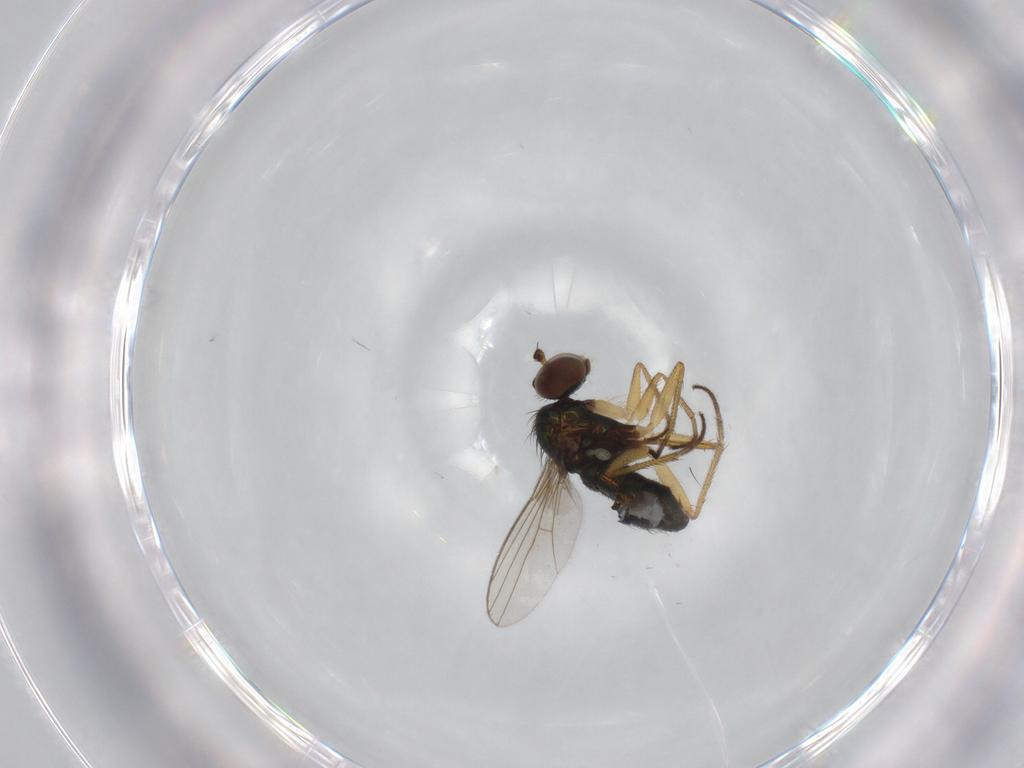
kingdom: Animalia
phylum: Arthropoda
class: Insecta
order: Diptera
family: Dolichopodidae
